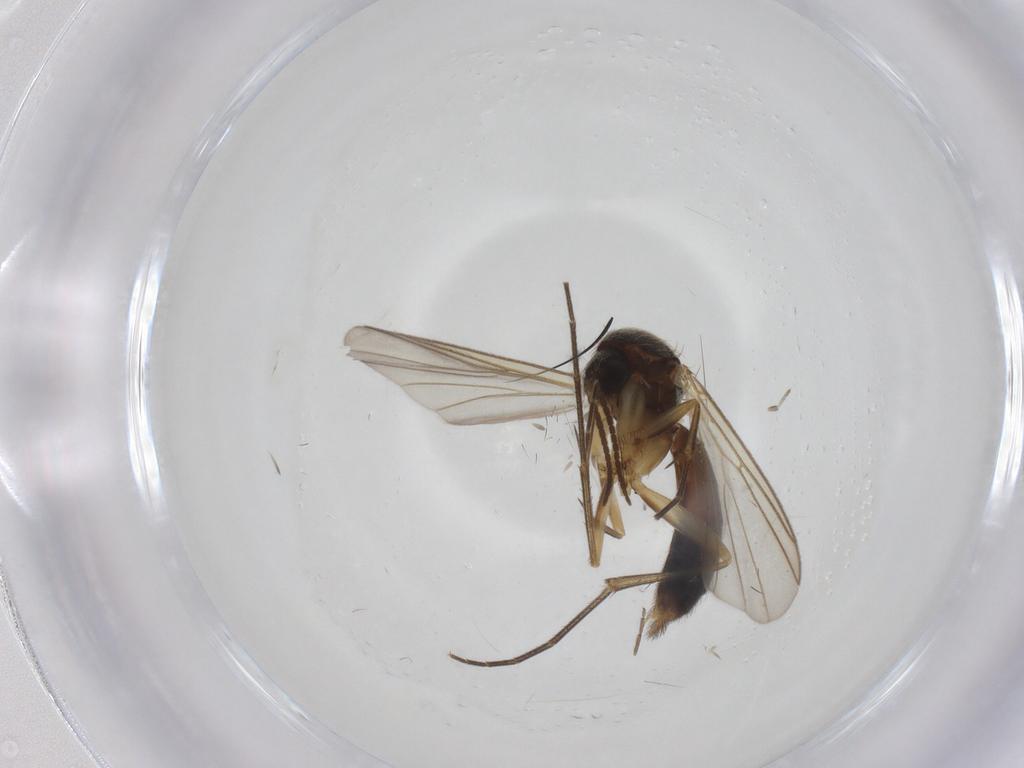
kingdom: Animalia
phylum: Arthropoda
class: Insecta
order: Diptera
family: Ceratopogonidae
